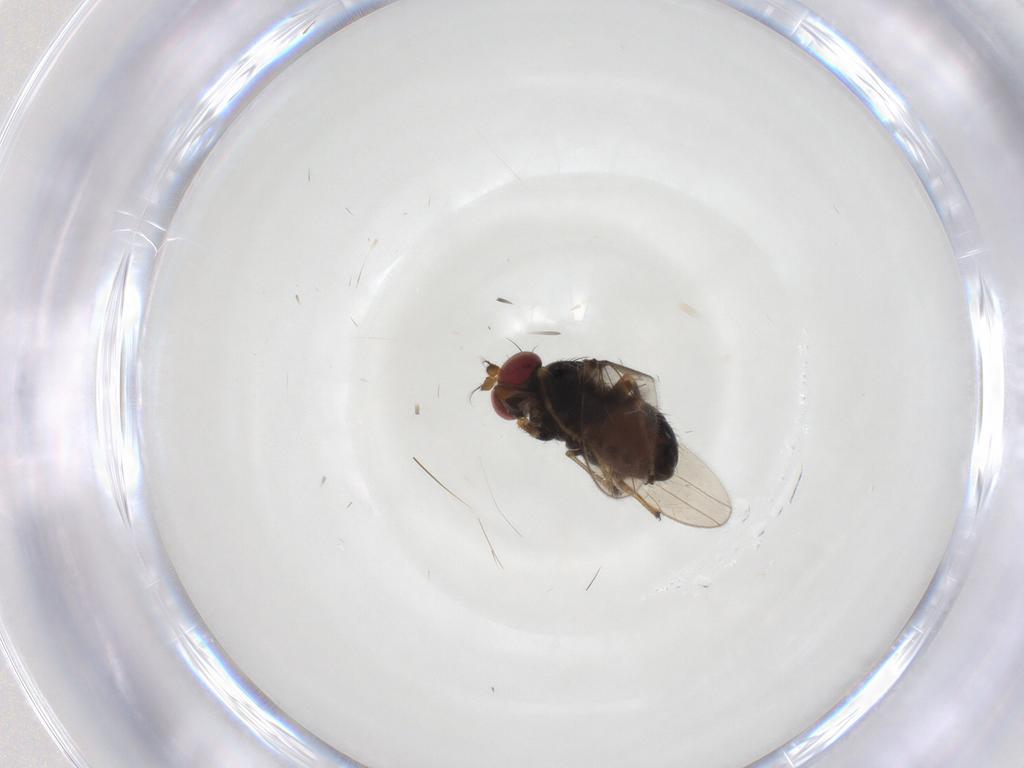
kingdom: Animalia
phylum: Arthropoda
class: Insecta
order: Diptera
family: Ephydridae
